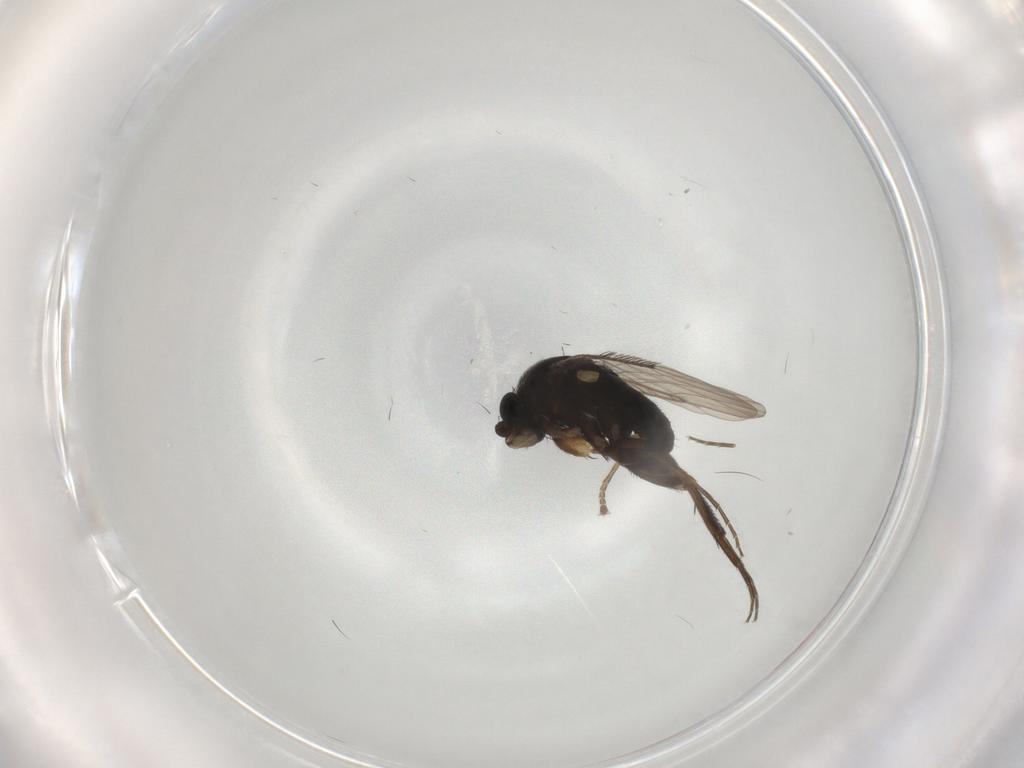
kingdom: Animalia
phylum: Arthropoda
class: Insecta
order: Diptera
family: Phoridae
